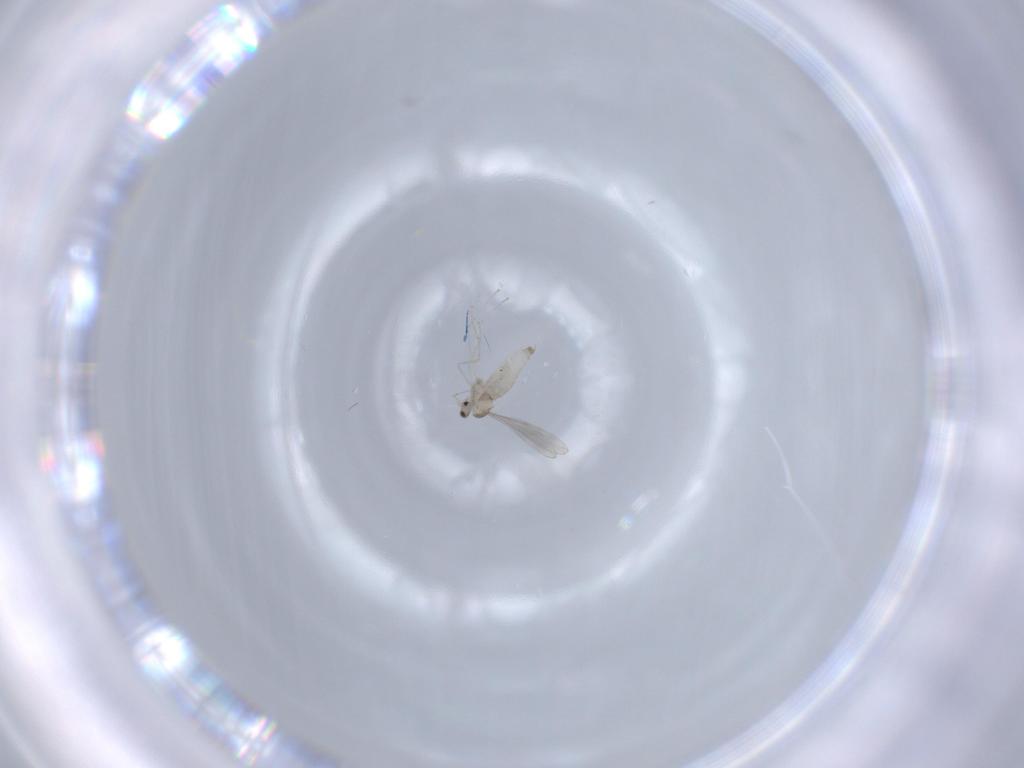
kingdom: Animalia
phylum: Arthropoda
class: Insecta
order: Diptera
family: Cecidomyiidae
